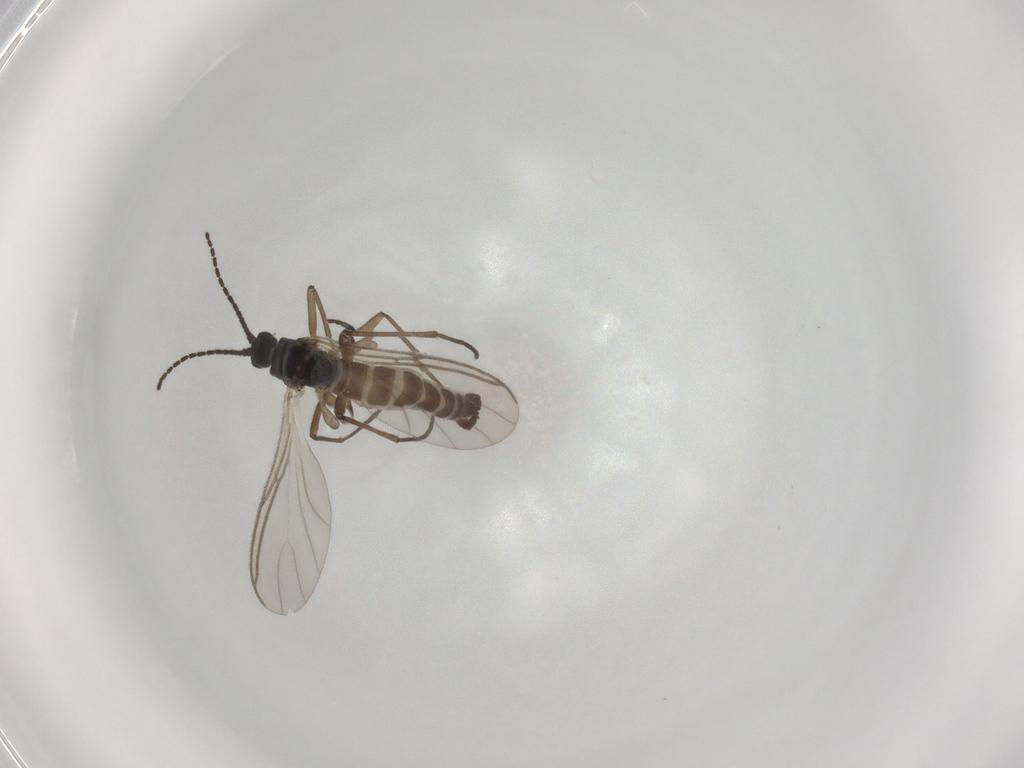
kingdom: Animalia
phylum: Arthropoda
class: Insecta
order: Diptera
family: Sciaridae
